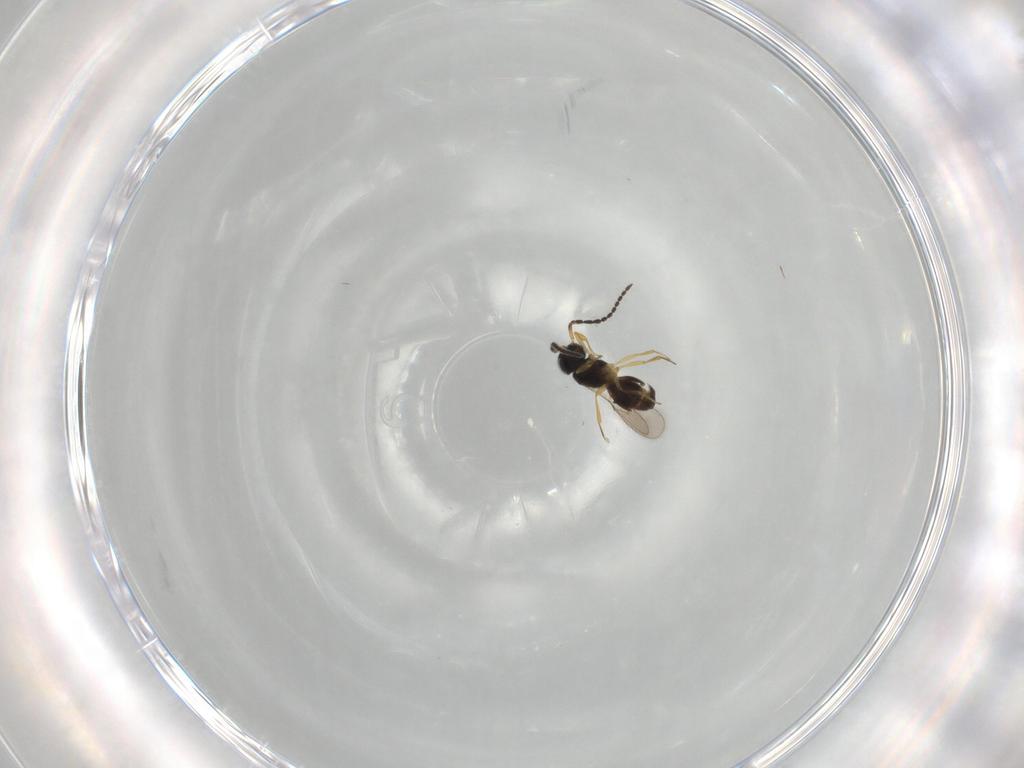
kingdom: Animalia
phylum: Arthropoda
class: Insecta
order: Hymenoptera
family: Scelionidae
